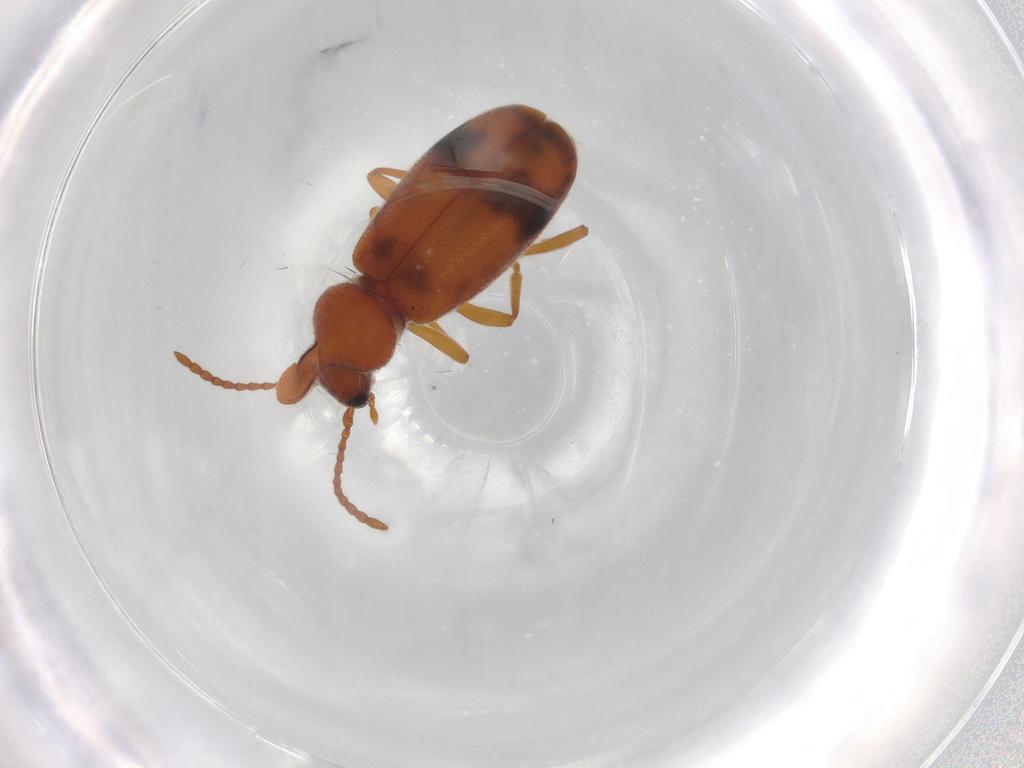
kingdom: Animalia
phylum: Arthropoda
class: Insecta
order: Coleoptera
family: Anthicidae
